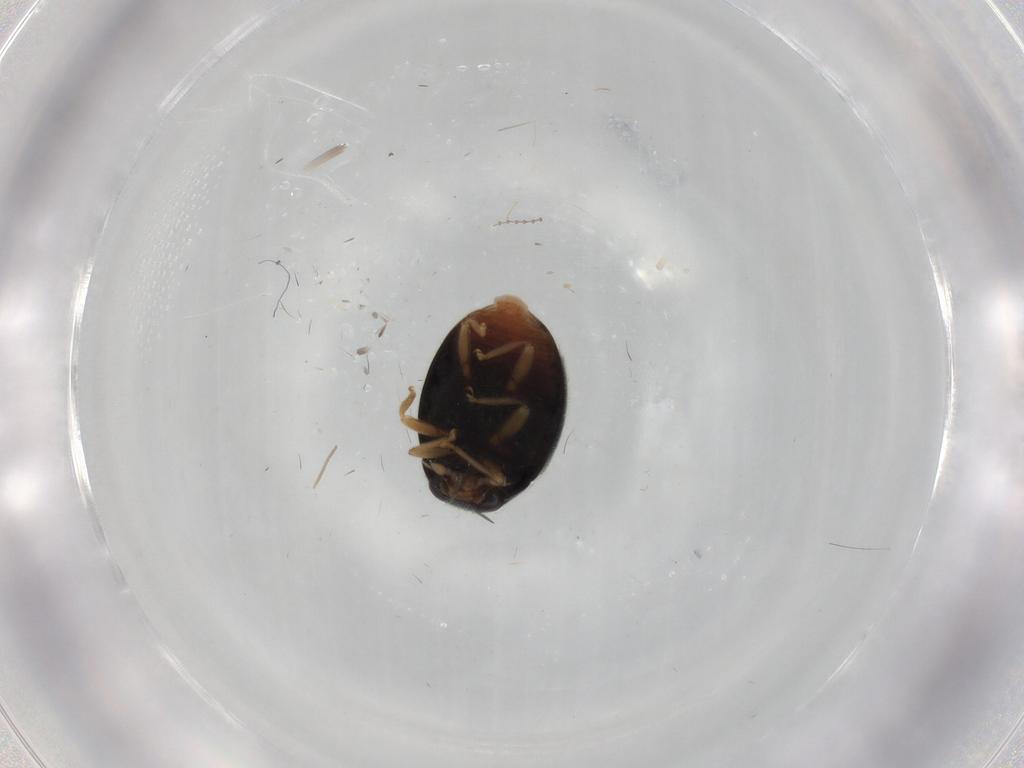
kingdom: Animalia
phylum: Arthropoda
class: Insecta
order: Coleoptera
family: Coccinellidae
